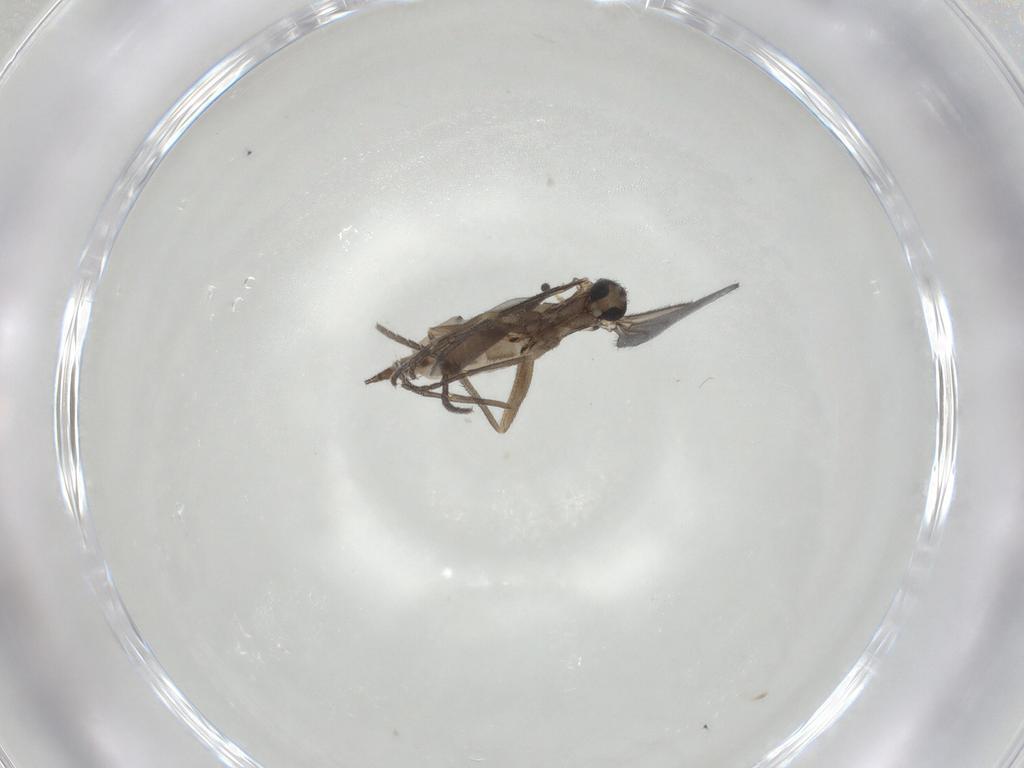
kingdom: Animalia
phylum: Arthropoda
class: Insecta
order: Diptera
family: Sciaridae
